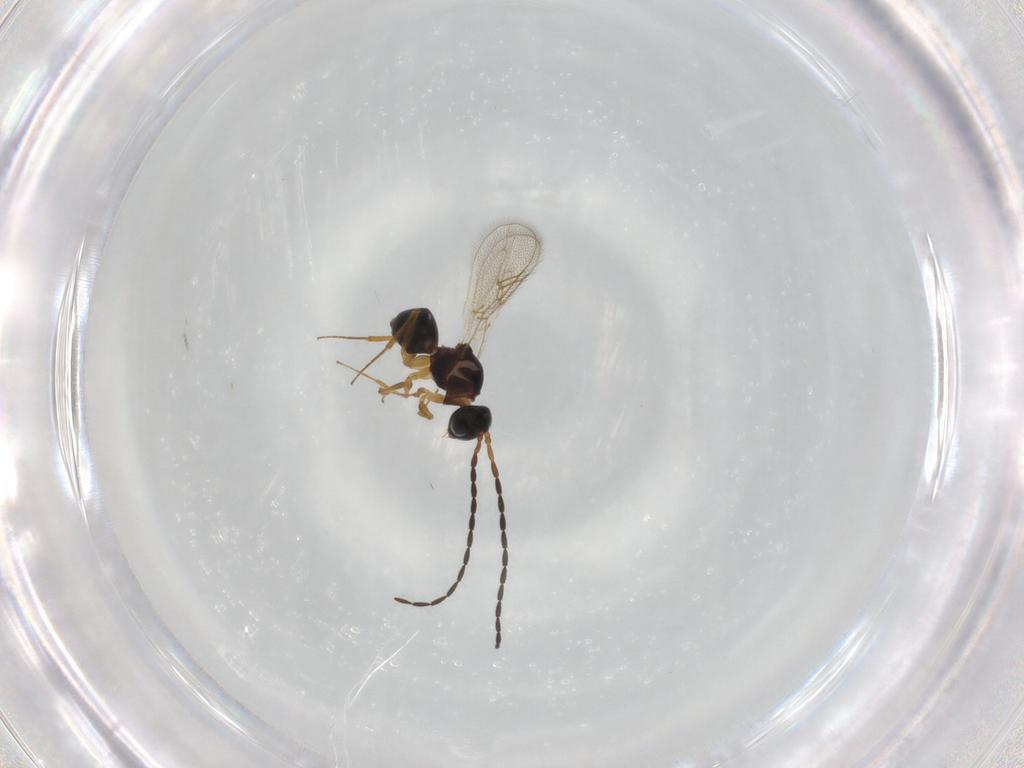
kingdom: Animalia
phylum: Arthropoda
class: Insecta
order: Hymenoptera
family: Figitidae
